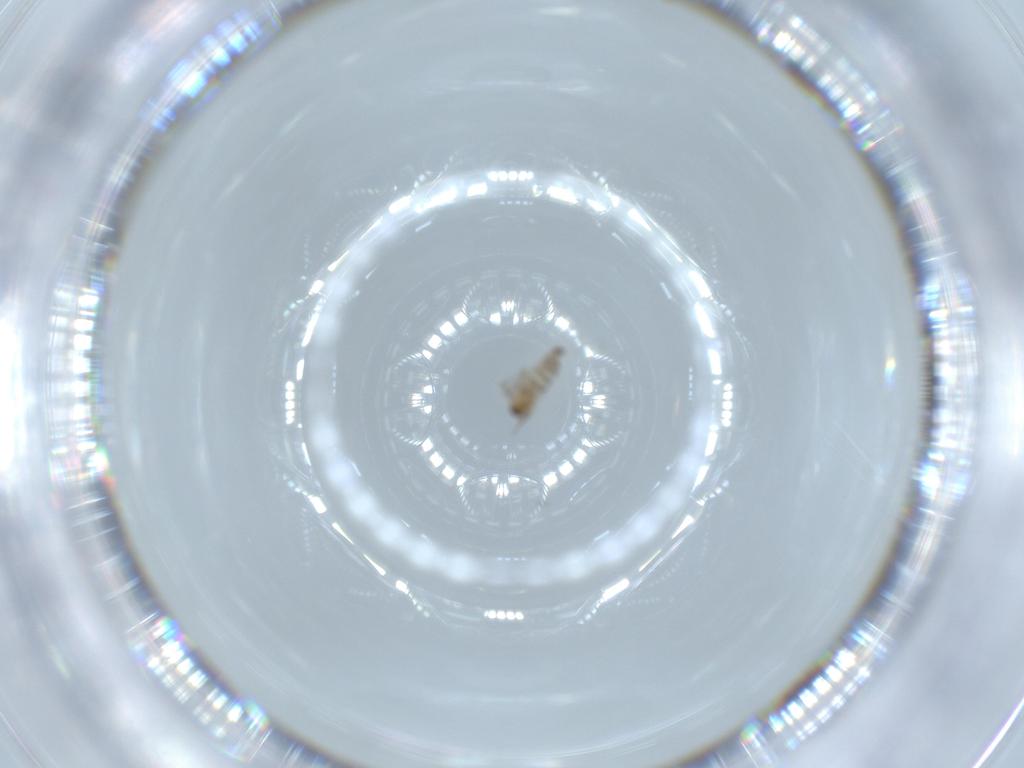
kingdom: Animalia
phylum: Arthropoda
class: Insecta
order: Diptera
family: Cecidomyiidae
